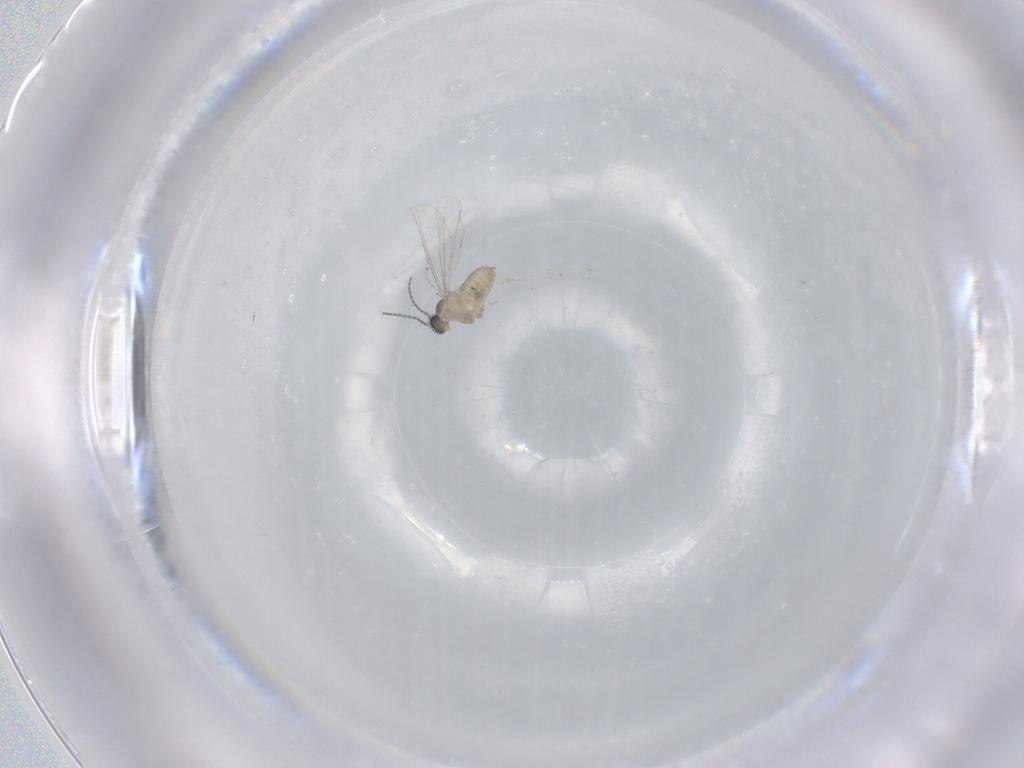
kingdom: Animalia
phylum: Arthropoda
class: Insecta
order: Diptera
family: Cecidomyiidae
